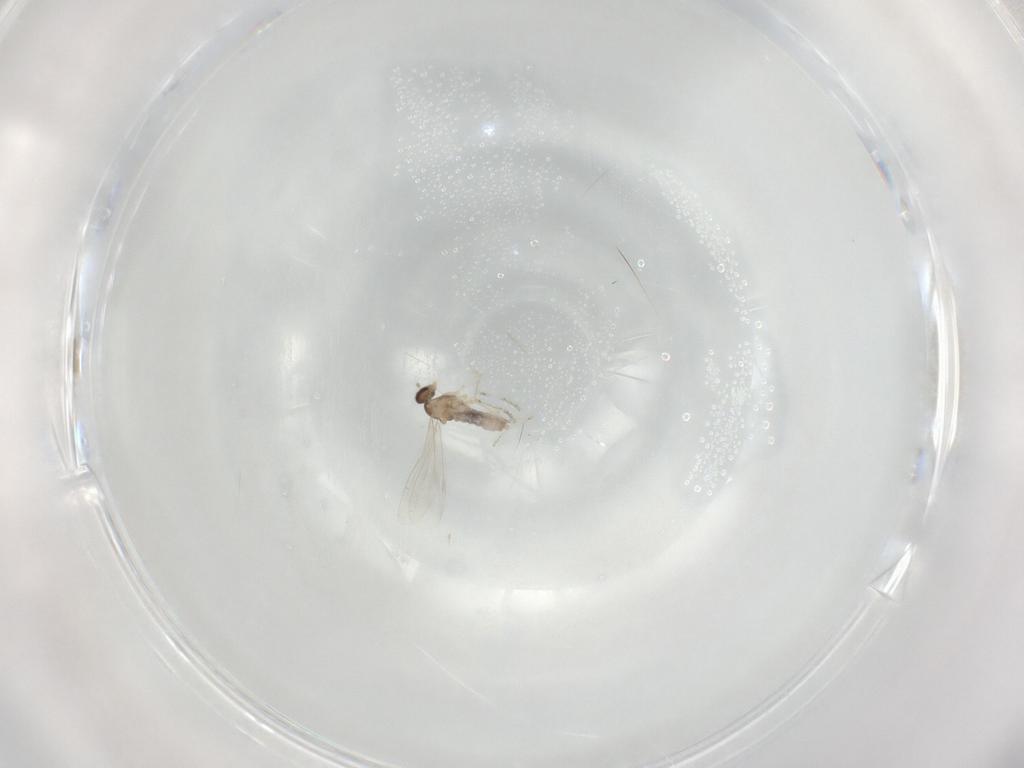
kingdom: Animalia
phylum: Arthropoda
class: Insecta
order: Diptera
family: Cecidomyiidae
